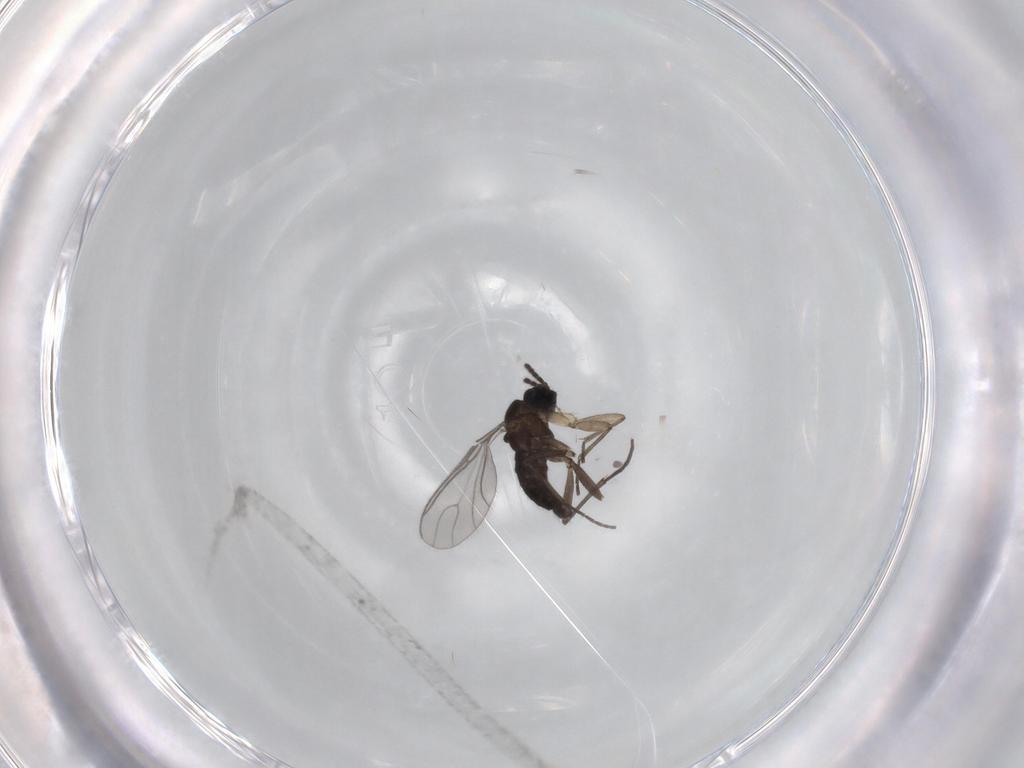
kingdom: Animalia
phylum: Arthropoda
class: Insecta
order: Diptera
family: Sciaridae
